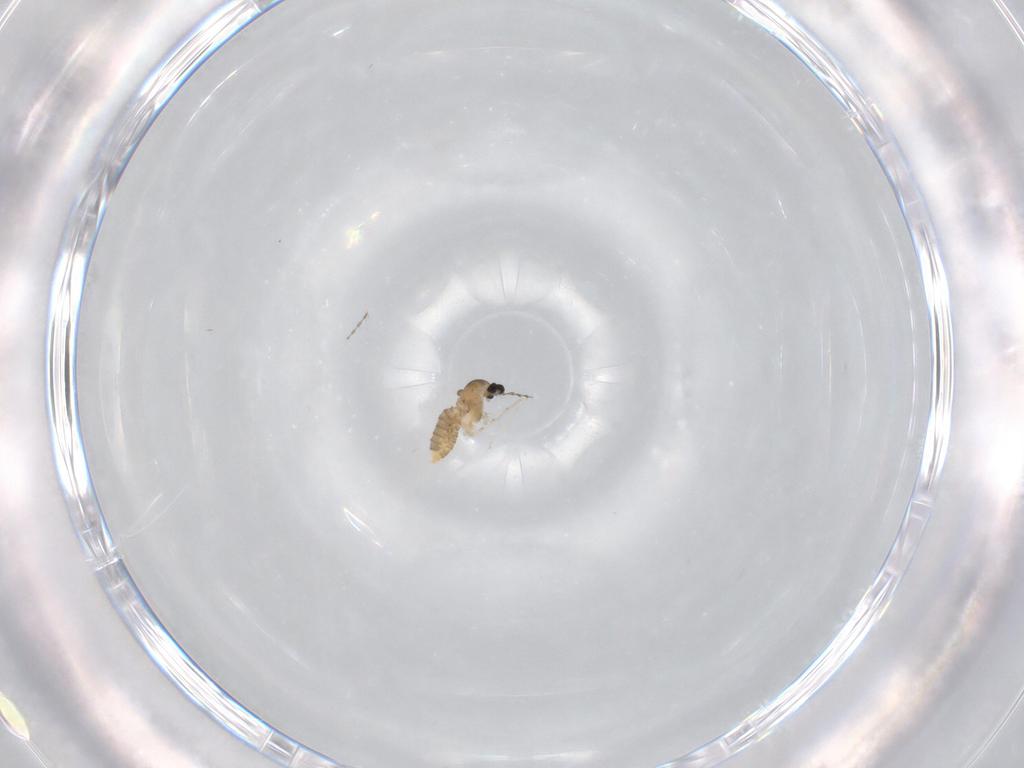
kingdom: Animalia
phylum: Arthropoda
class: Insecta
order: Diptera
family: Cecidomyiidae
